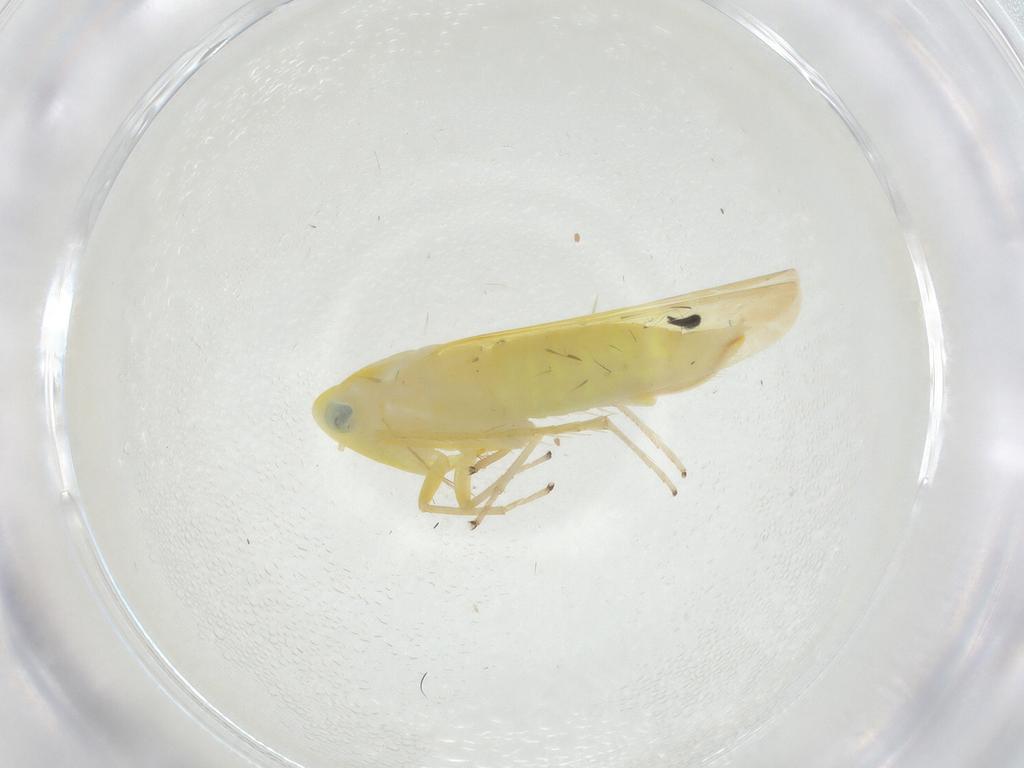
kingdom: Animalia
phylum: Arthropoda
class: Insecta
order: Hemiptera
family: Cicadellidae
